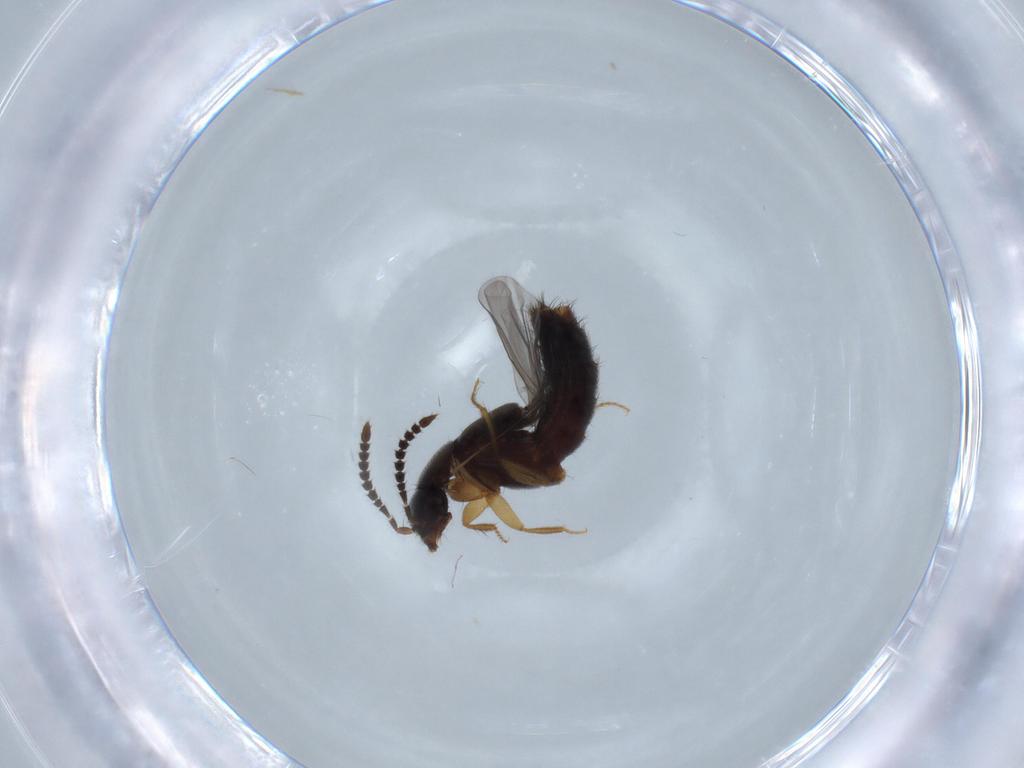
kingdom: Animalia
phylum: Arthropoda
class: Insecta
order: Coleoptera
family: Staphylinidae
